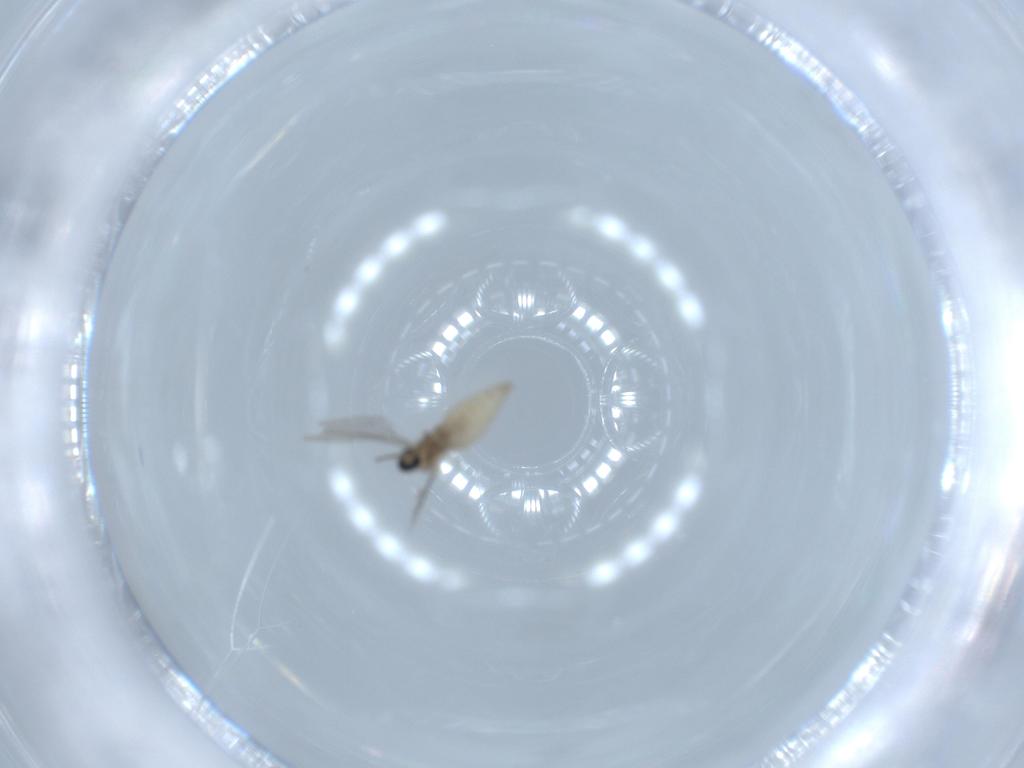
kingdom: Animalia
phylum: Arthropoda
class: Insecta
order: Diptera
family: Cecidomyiidae
